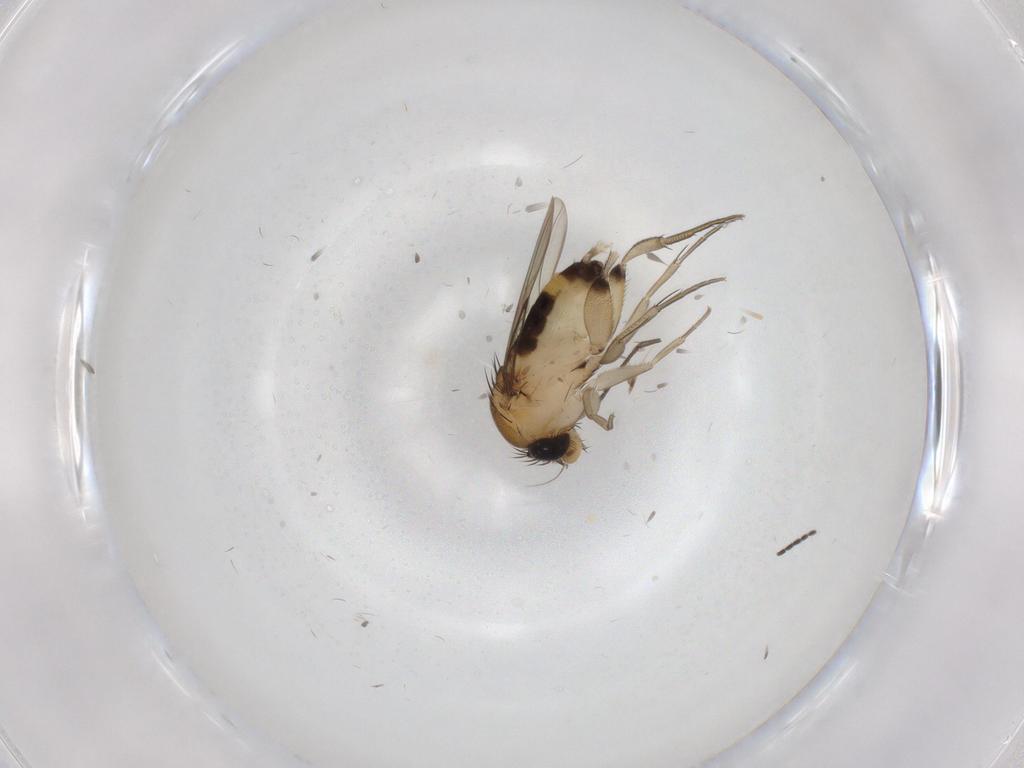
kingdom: Animalia
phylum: Arthropoda
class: Insecta
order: Diptera
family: Phoridae
